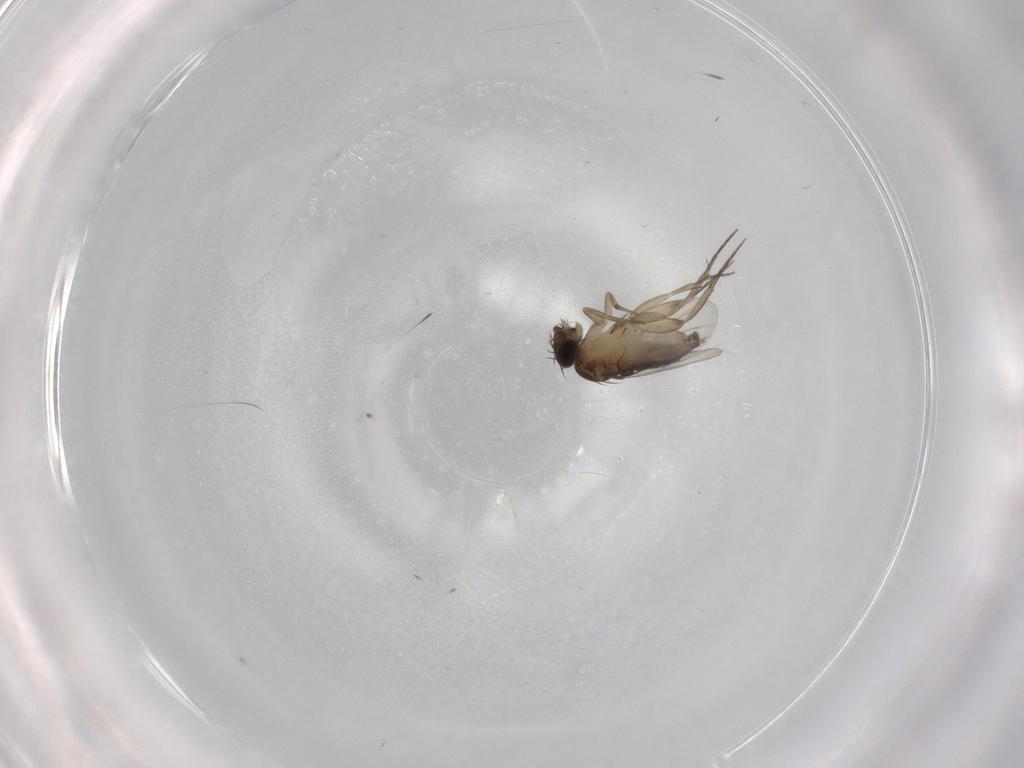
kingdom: Animalia
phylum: Arthropoda
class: Insecta
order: Diptera
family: Phoridae
